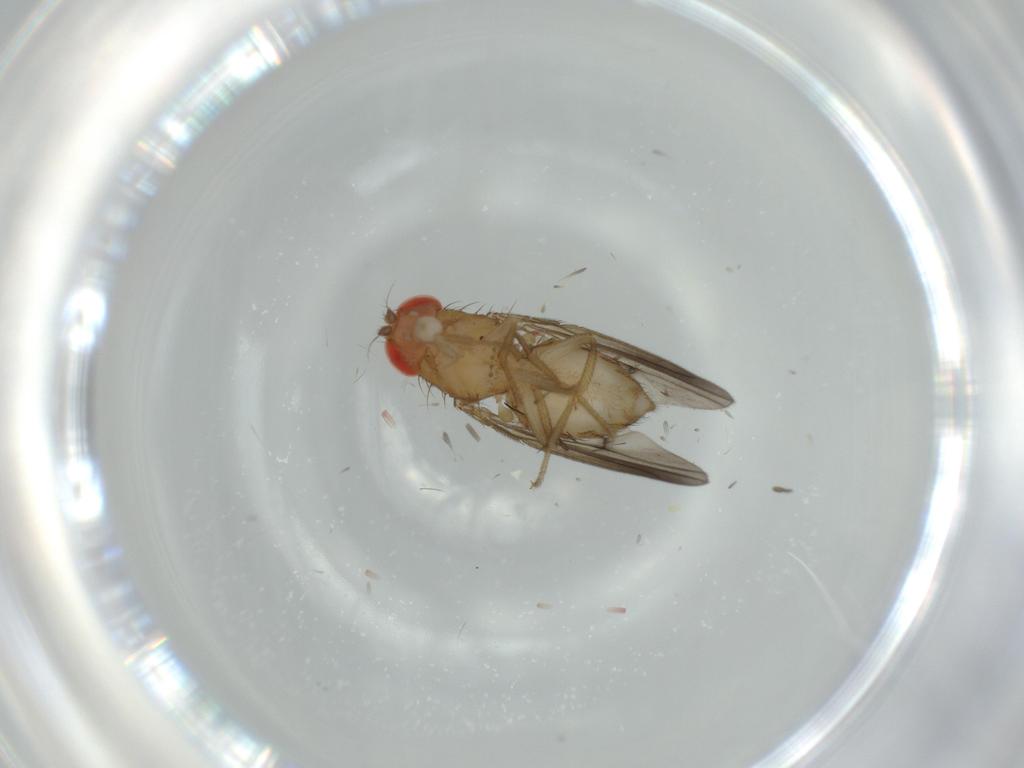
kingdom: Animalia
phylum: Arthropoda
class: Insecta
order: Diptera
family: Drosophilidae
